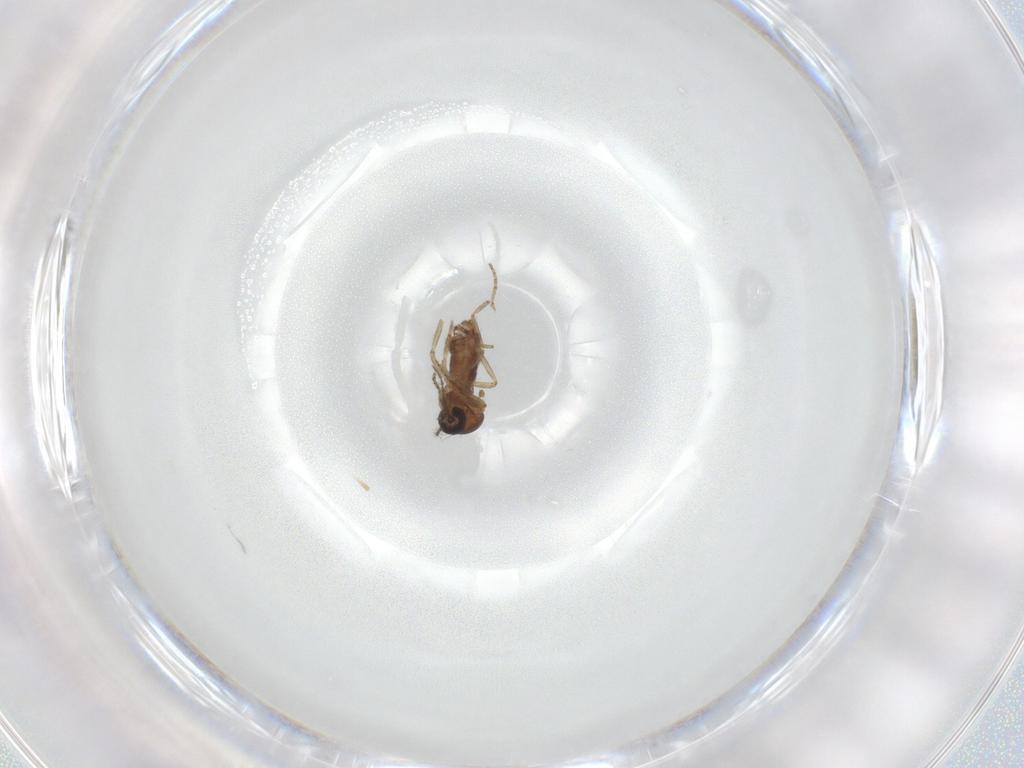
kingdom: Animalia
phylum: Arthropoda
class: Insecta
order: Diptera
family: Ceratopogonidae
